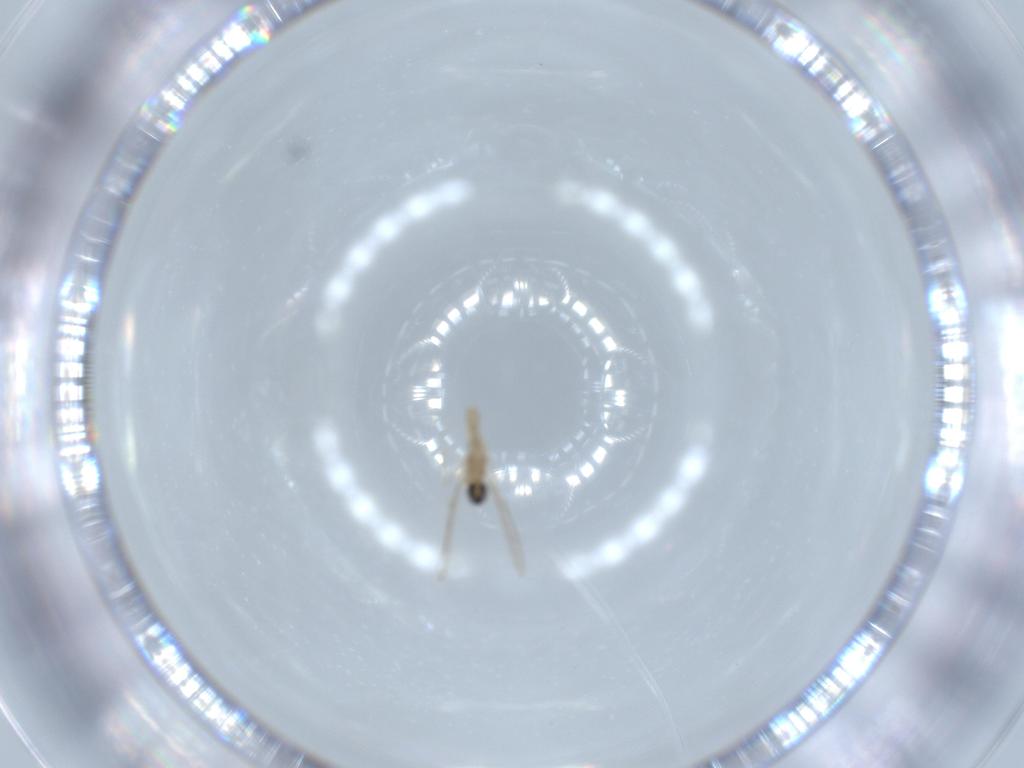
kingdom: Animalia
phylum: Arthropoda
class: Insecta
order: Diptera
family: Cecidomyiidae
